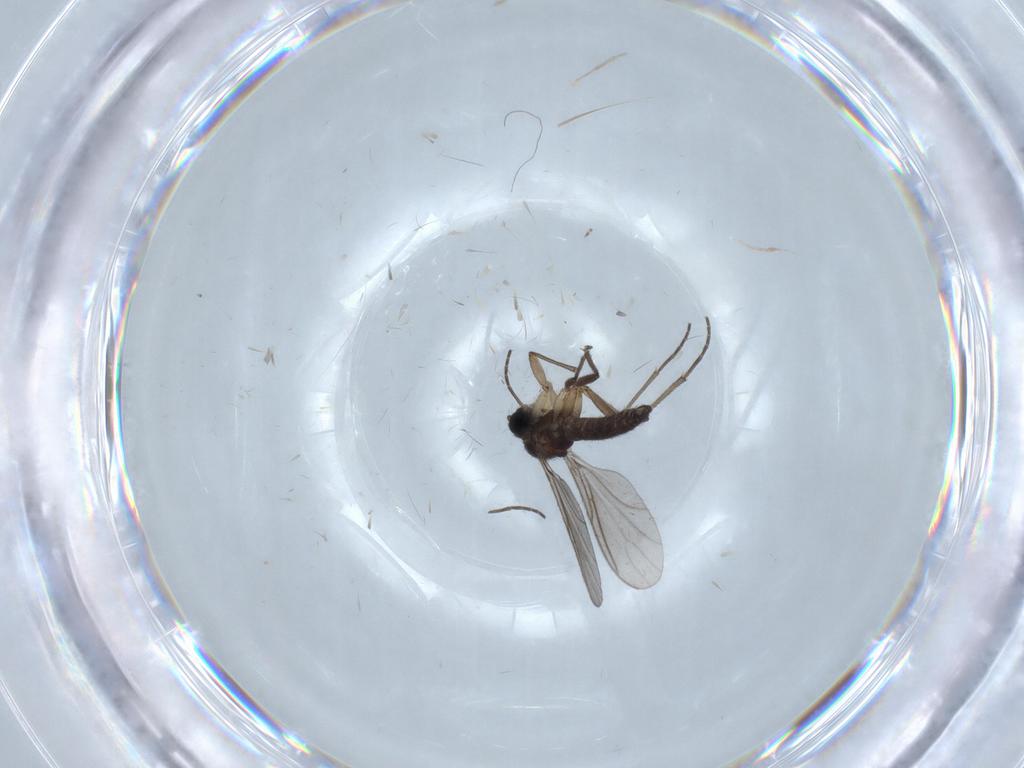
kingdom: Animalia
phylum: Arthropoda
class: Insecta
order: Diptera
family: Sciaridae
